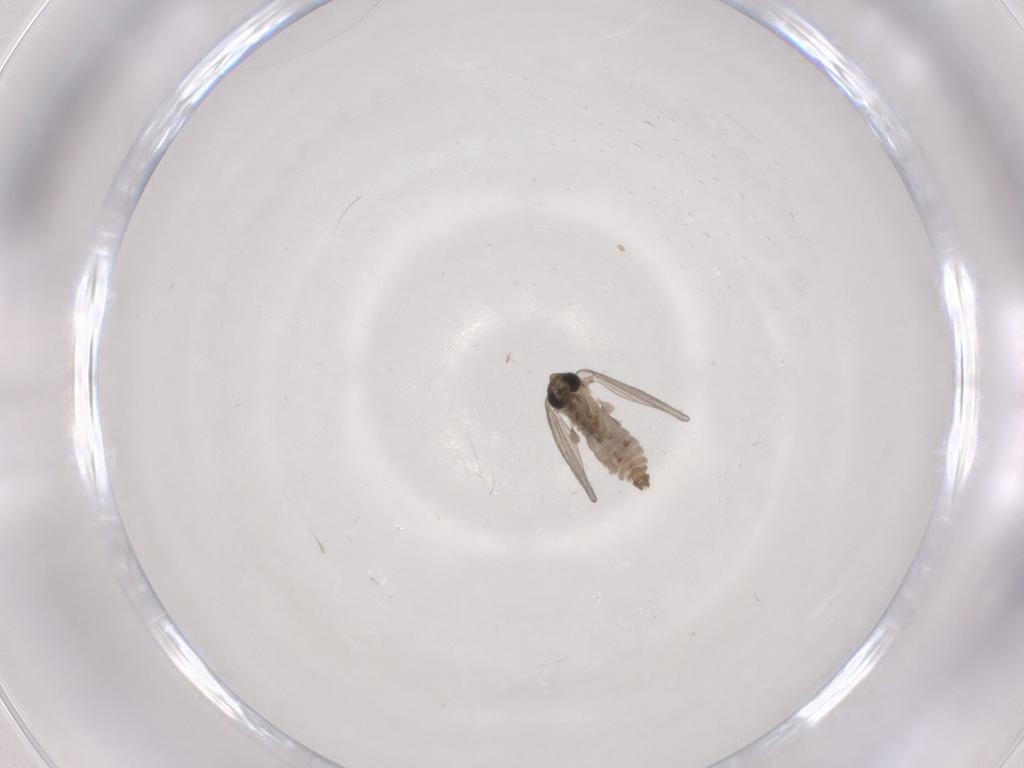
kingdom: Animalia
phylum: Arthropoda
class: Insecta
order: Diptera
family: Psychodidae
